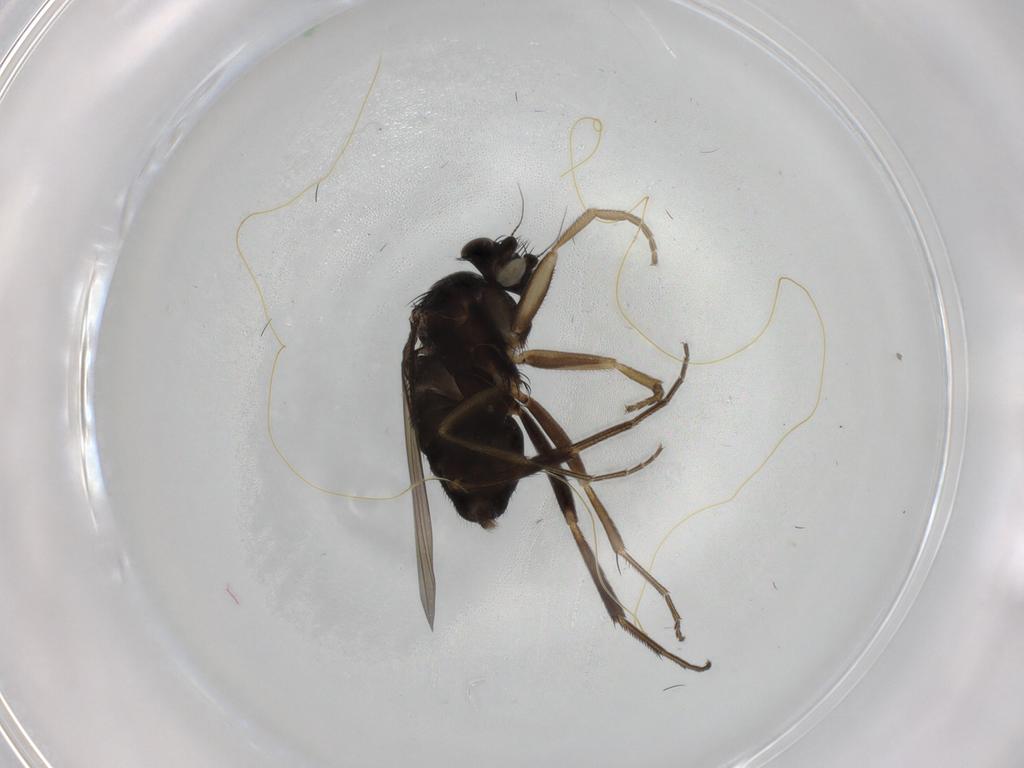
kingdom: Animalia
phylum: Arthropoda
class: Insecta
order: Diptera
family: Phoridae
